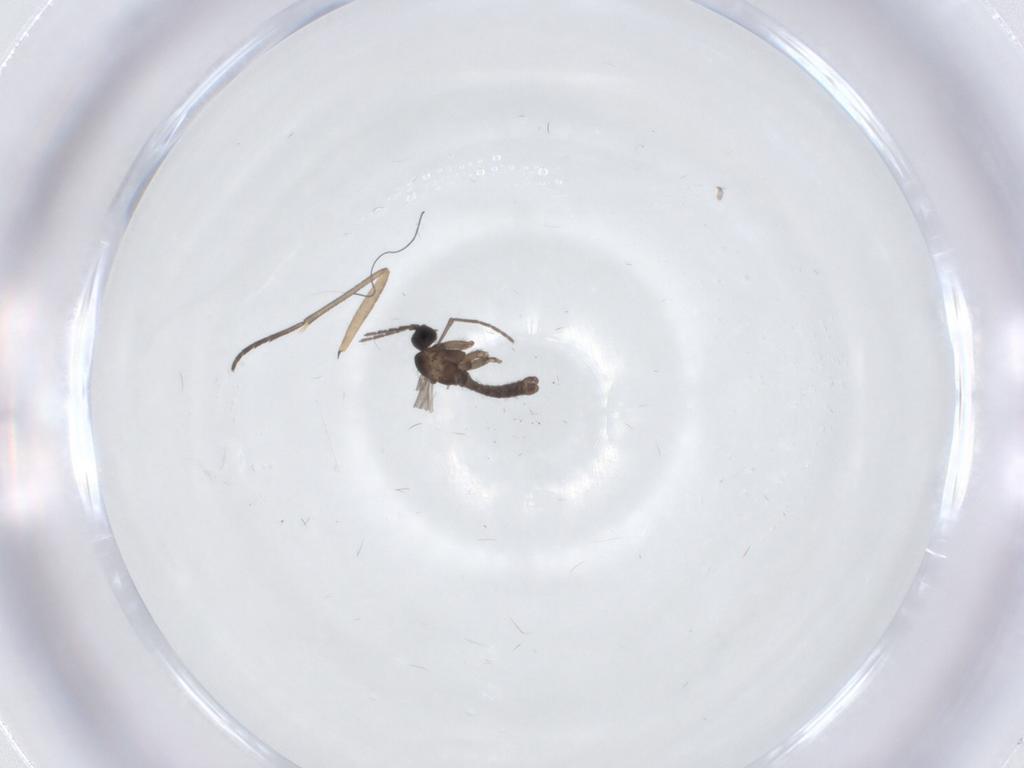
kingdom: Animalia
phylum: Arthropoda
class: Insecta
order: Diptera
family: Sciaridae
